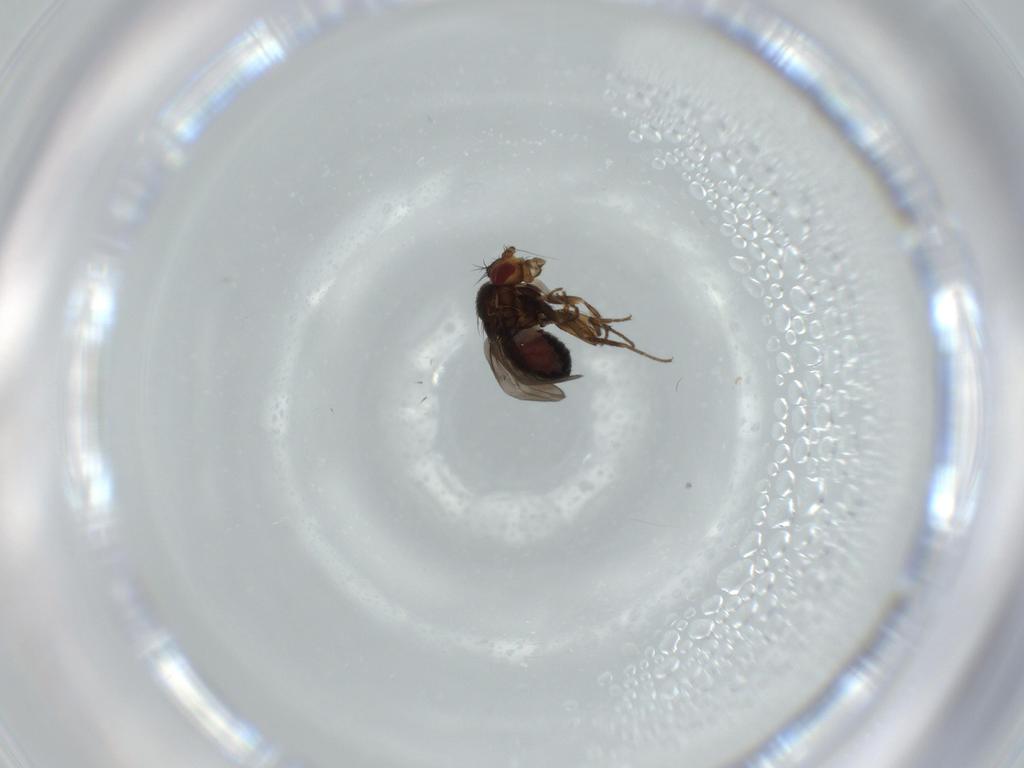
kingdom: Animalia
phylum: Arthropoda
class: Insecta
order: Diptera
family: Sphaeroceridae
